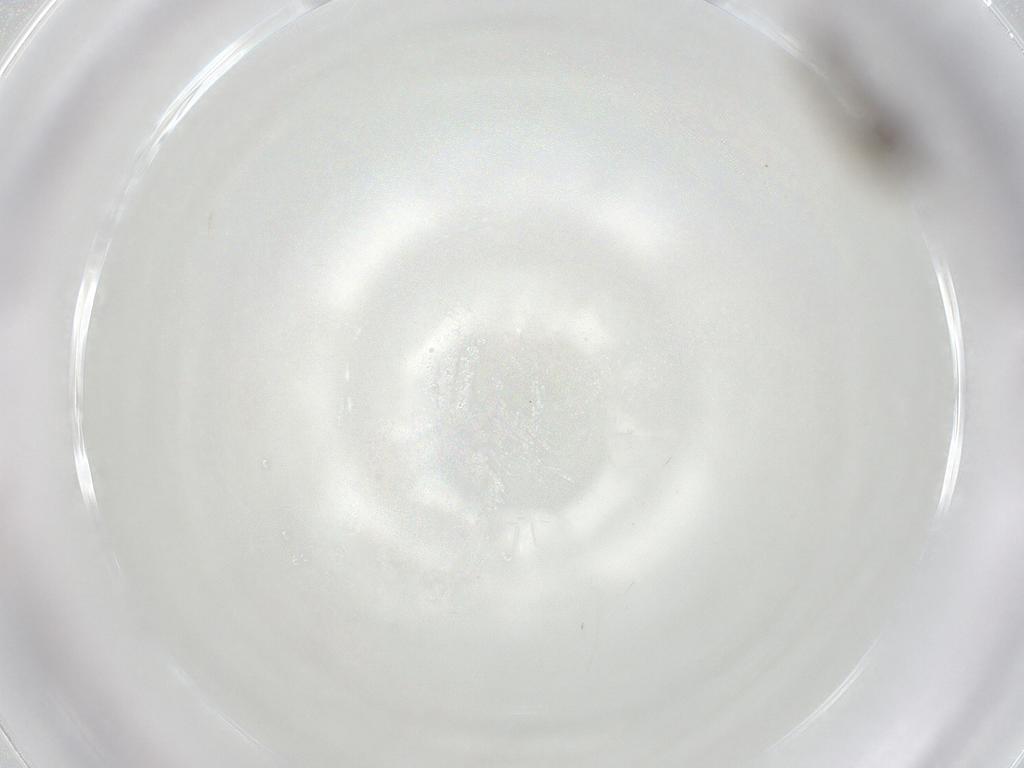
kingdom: Animalia
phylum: Arthropoda
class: Insecta
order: Diptera
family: Psychodidae
